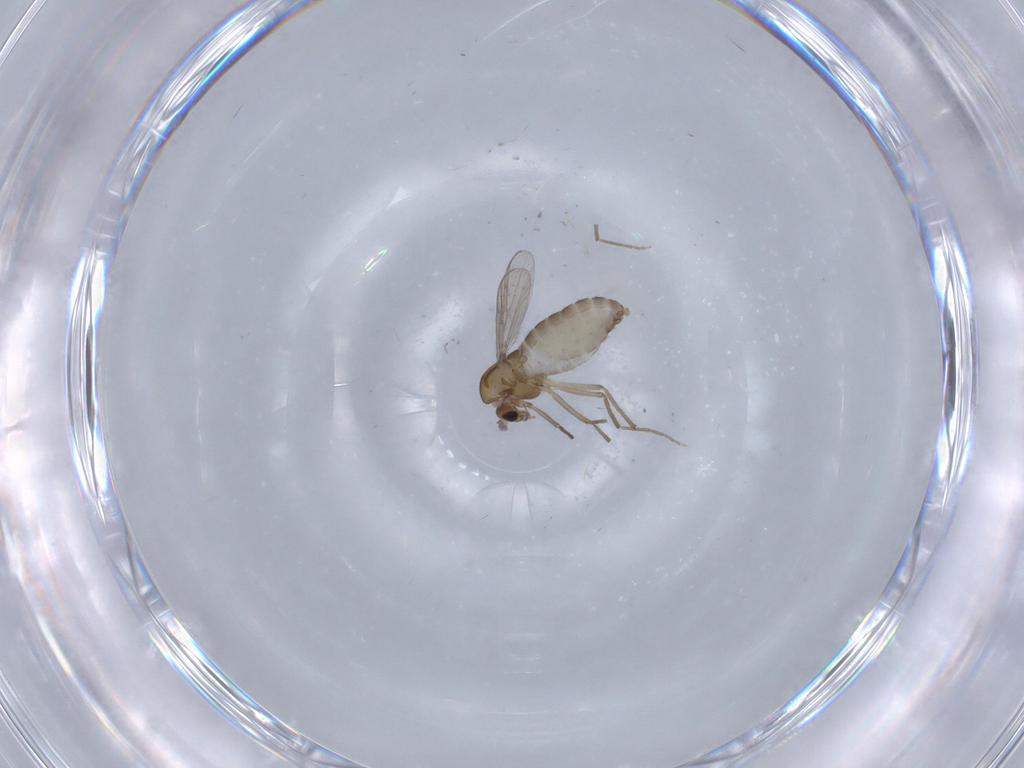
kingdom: Animalia
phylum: Arthropoda
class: Insecta
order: Diptera
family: Chironomidae
